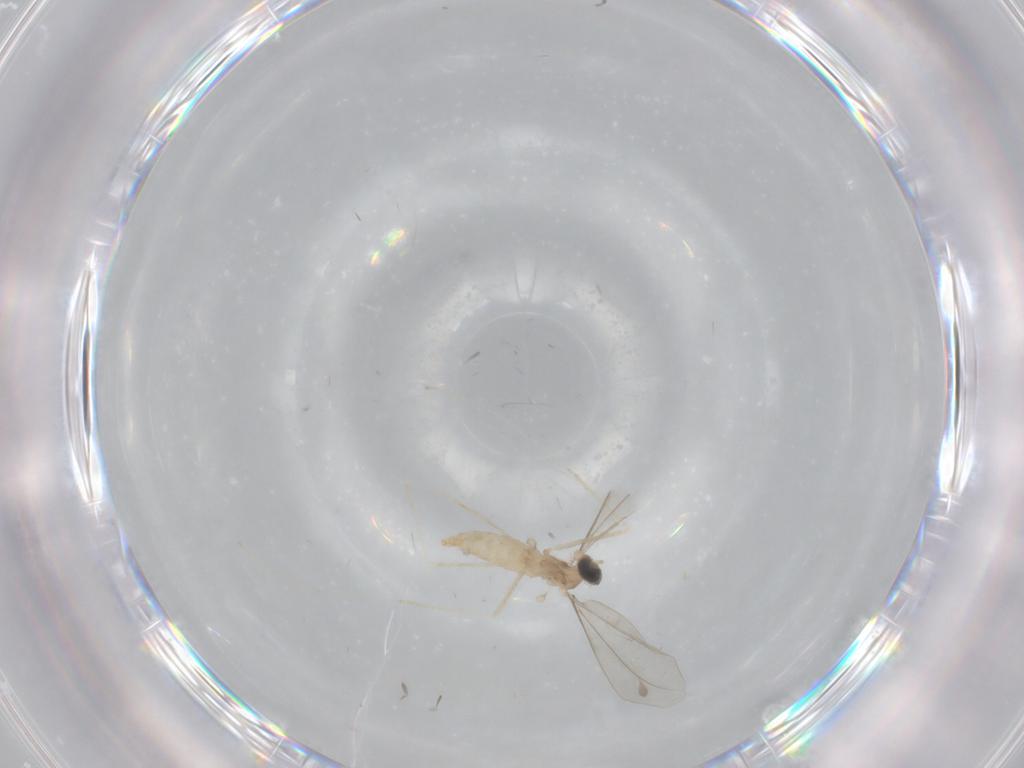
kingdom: Animalia
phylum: Arthropoda
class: Insecta
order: Diptera
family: Cecidomyiidae
